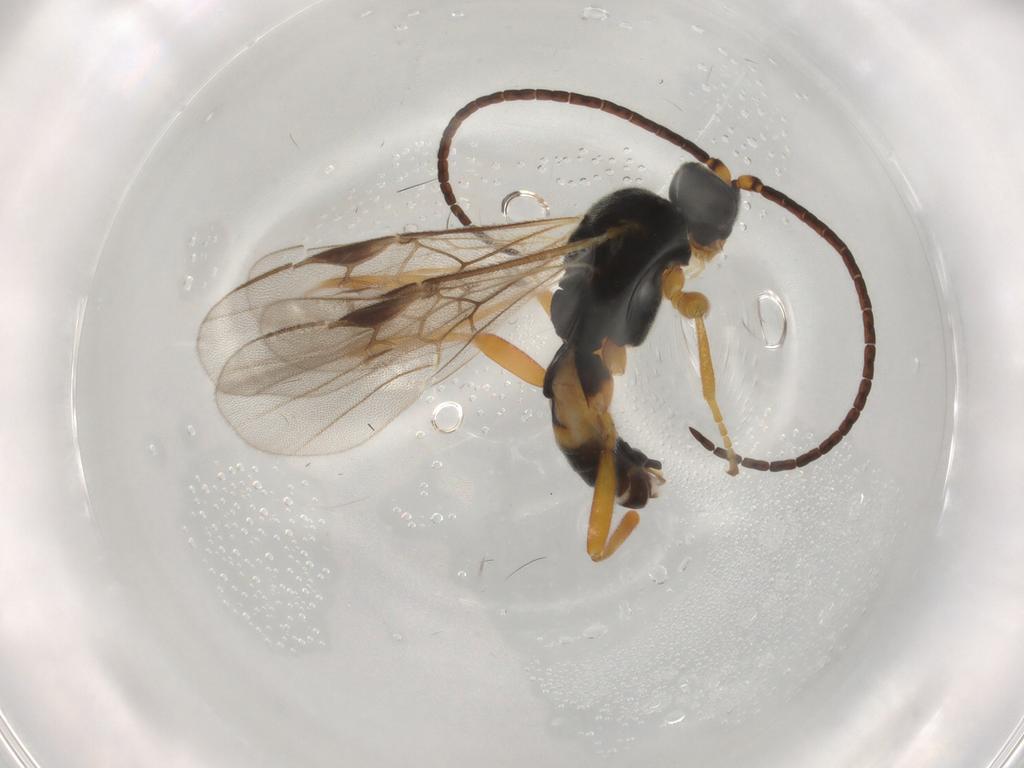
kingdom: Animalia
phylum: Arthropoda
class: Insecta
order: Hymenoptera
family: Braconidae
